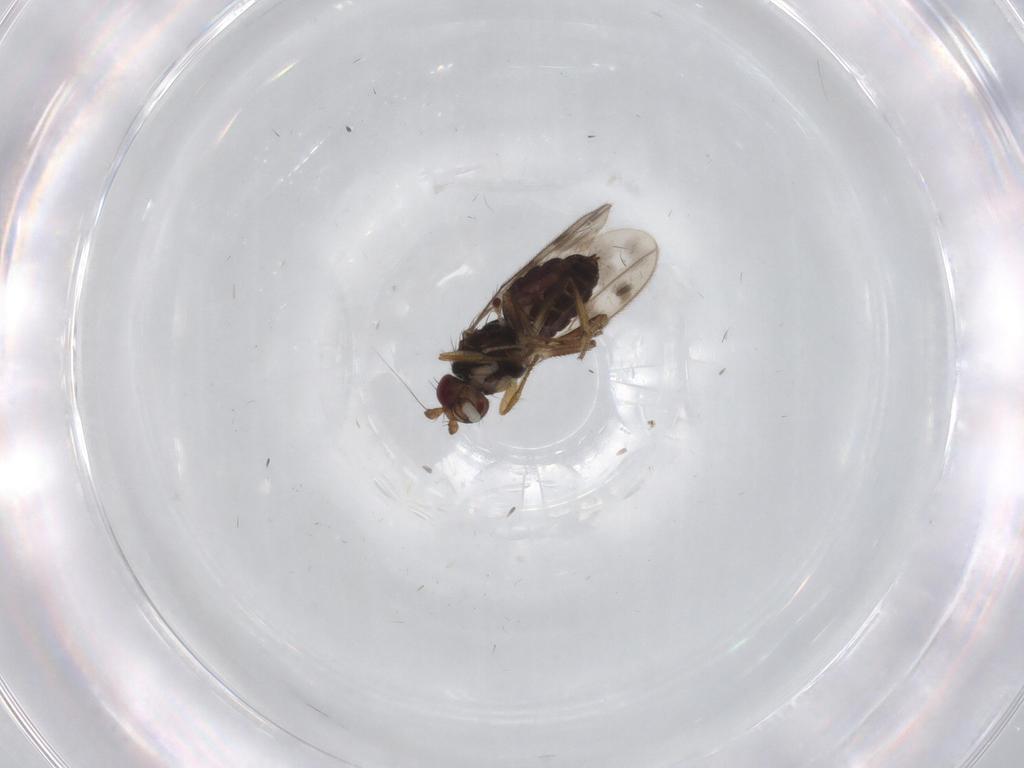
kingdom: Animalia
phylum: Arthropoda
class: Insecta
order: Diptera
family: Sphaeroceridae
